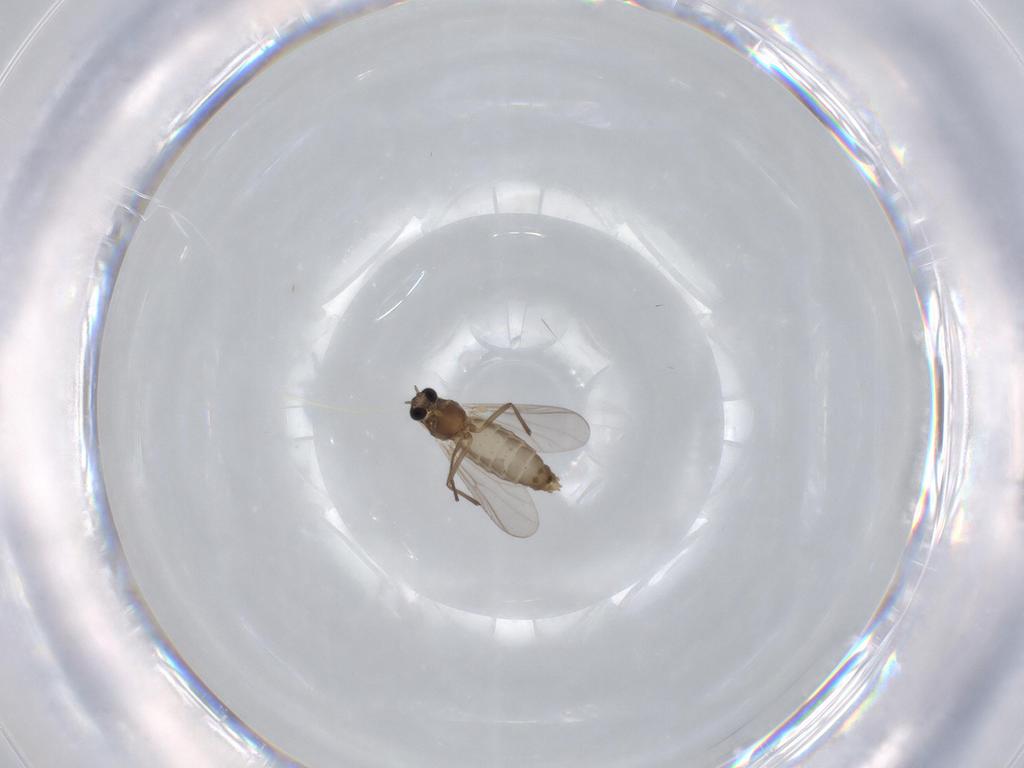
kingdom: Animalia
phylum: Arthropoda
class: Insecta
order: Diptera
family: Chironomidae
